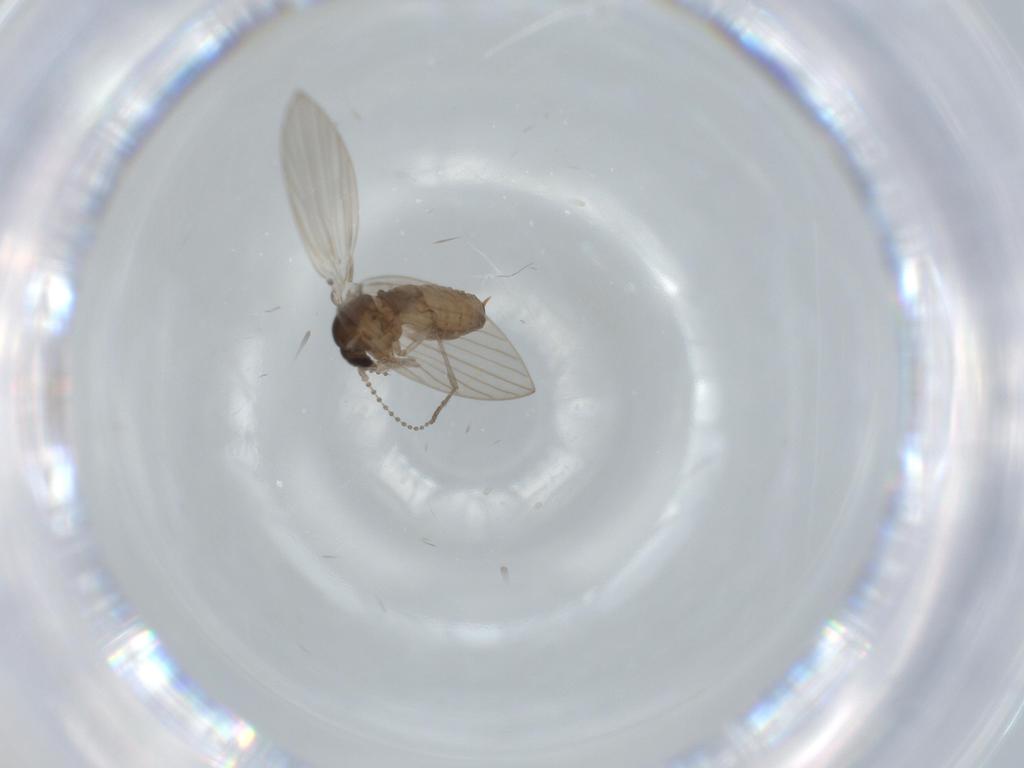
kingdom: Animalia
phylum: Arthropoda
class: Insecta
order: Diptera
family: Psychodidae
